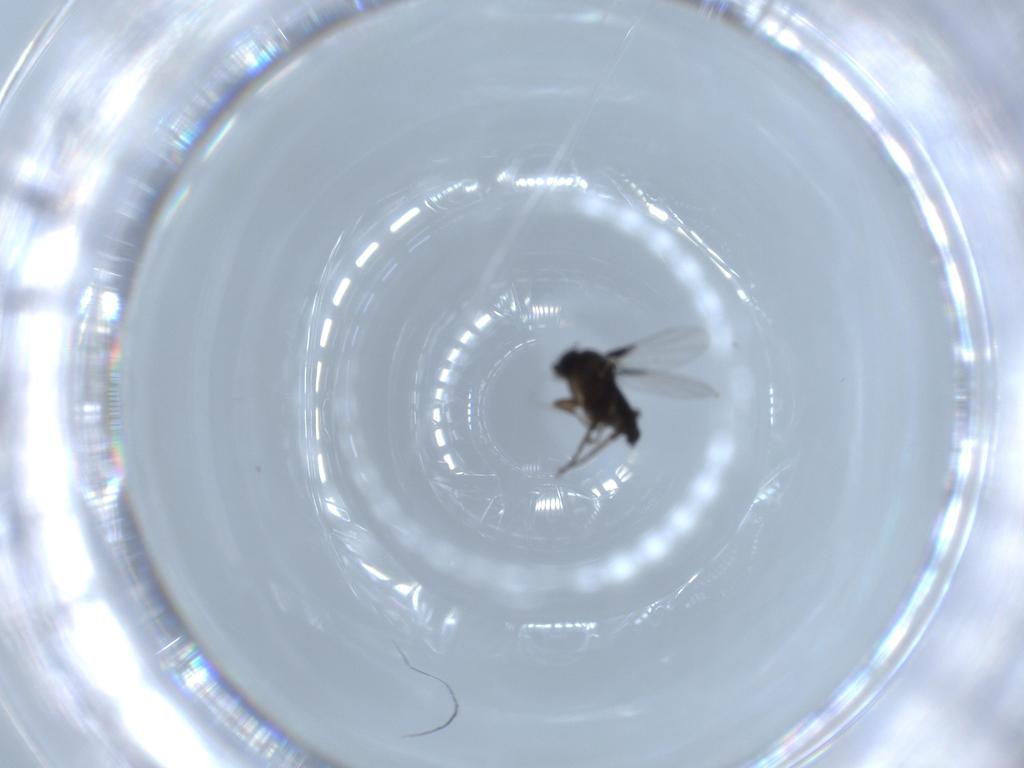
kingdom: Animalia
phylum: Arthropoda
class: Insecta
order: Diptera
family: Phoridae
